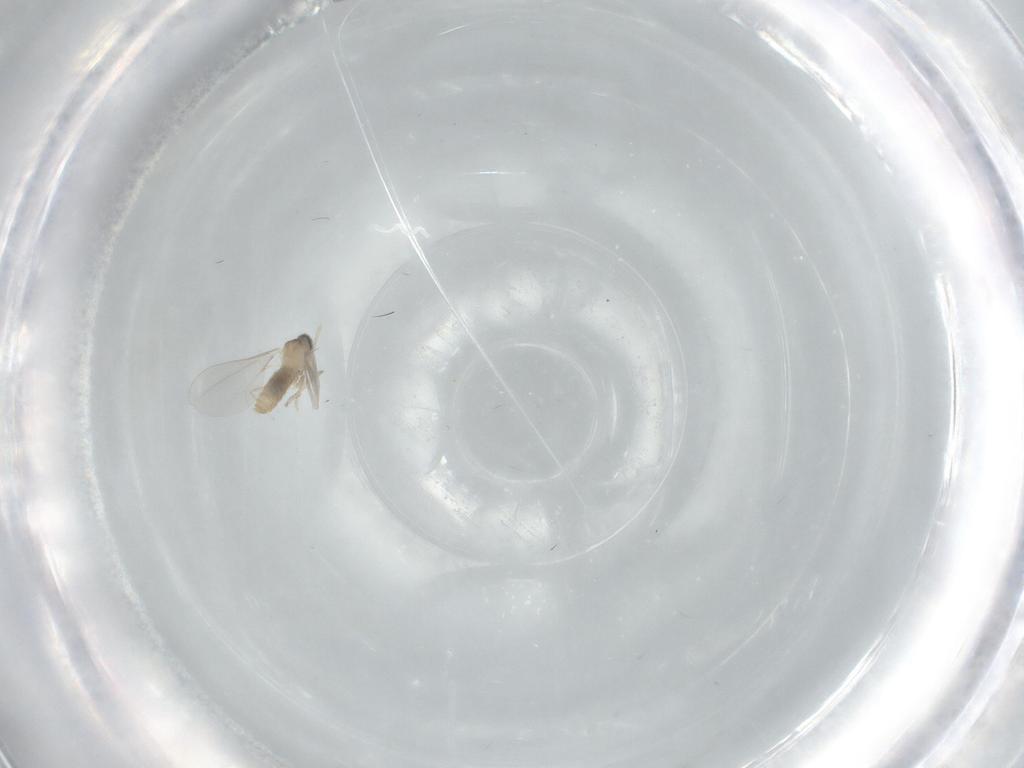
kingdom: Animalia
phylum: Arthropoda
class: Insecta
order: Diptera
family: Cecidomyiidae
